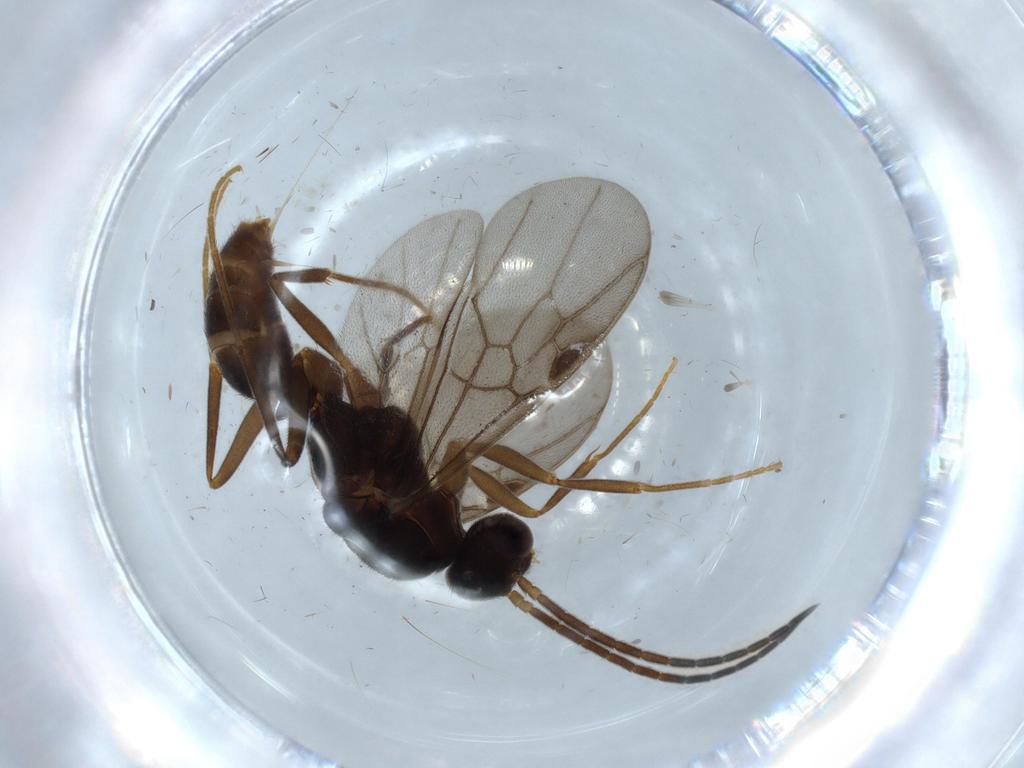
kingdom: Animalia
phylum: Arthropoda
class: Insecta
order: Hymenoptera
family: Formicidae
